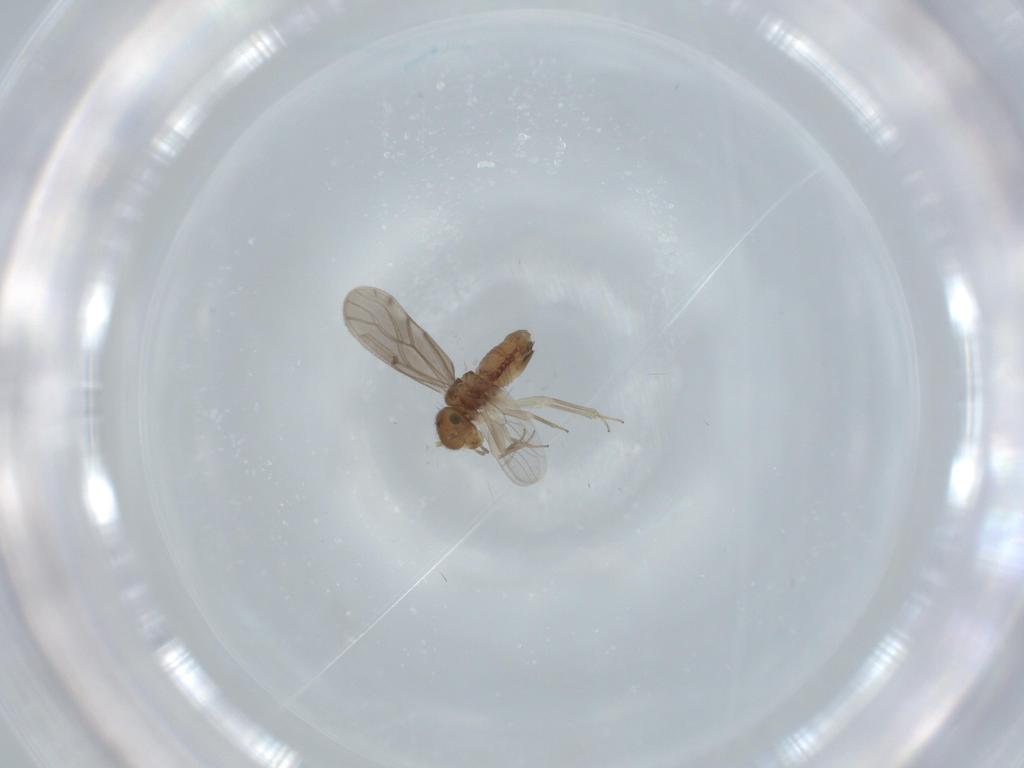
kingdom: Animalia
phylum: Arthropoda
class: Insecta
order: Psocodea
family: Ectopsocidae
